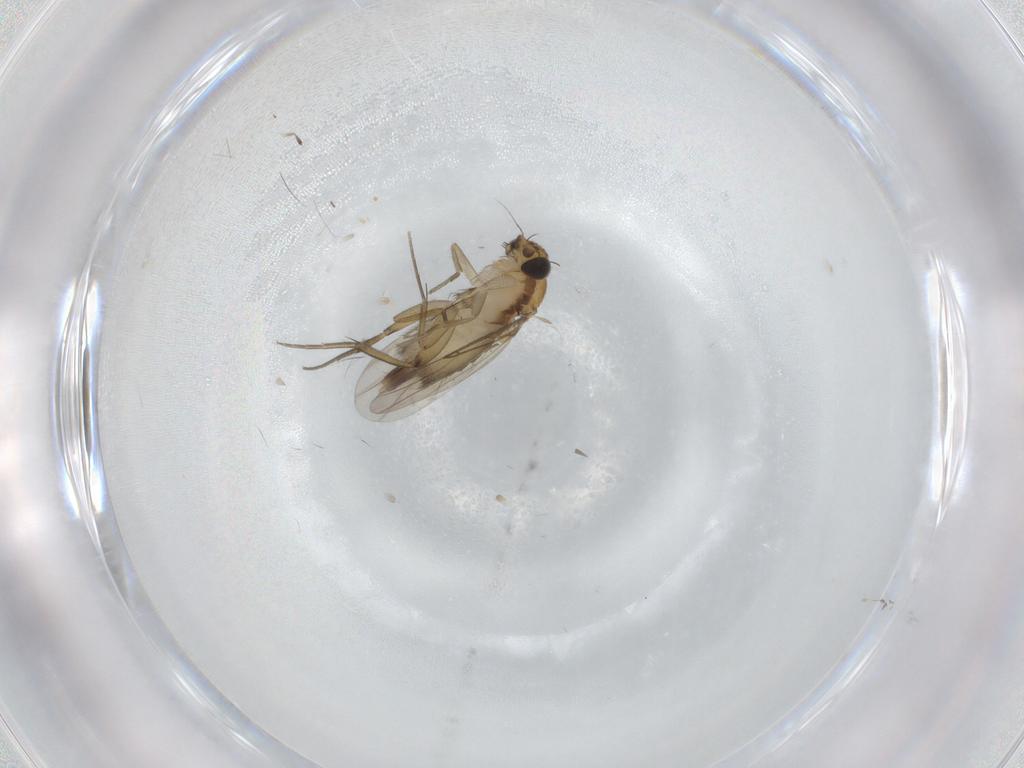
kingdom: Animalia
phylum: Arthropoda
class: Insecta
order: Diptera
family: Phoridae
